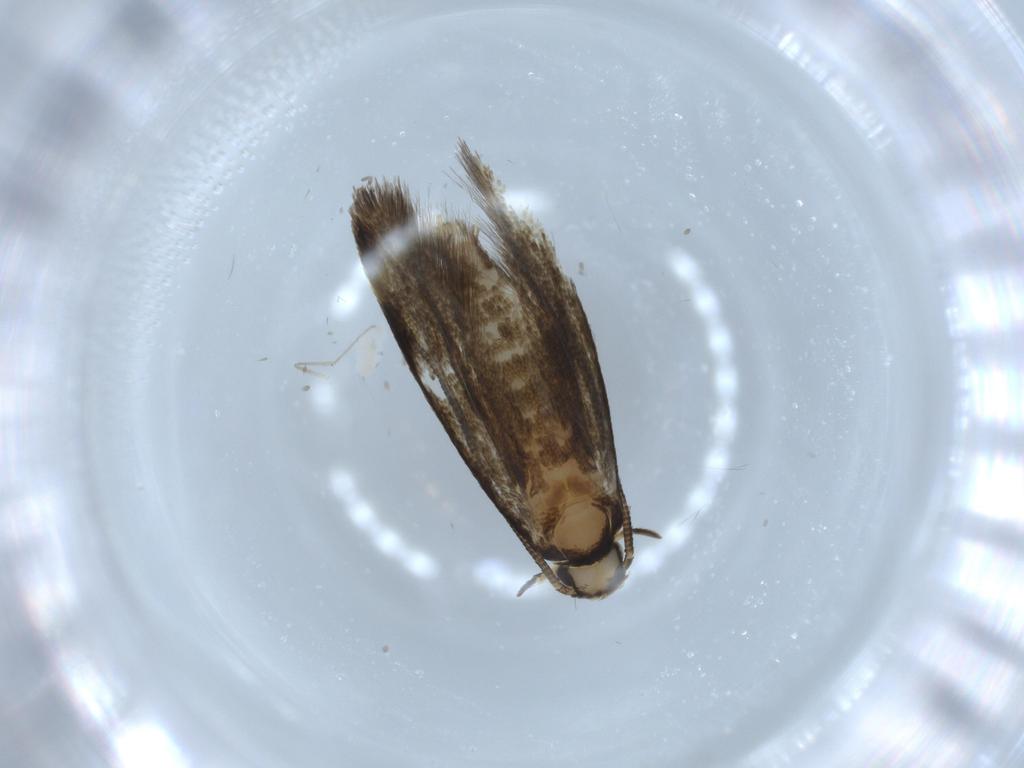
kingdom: Animalia
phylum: Arthropoda
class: Insecta
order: Lepidoptera
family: Tineidae
